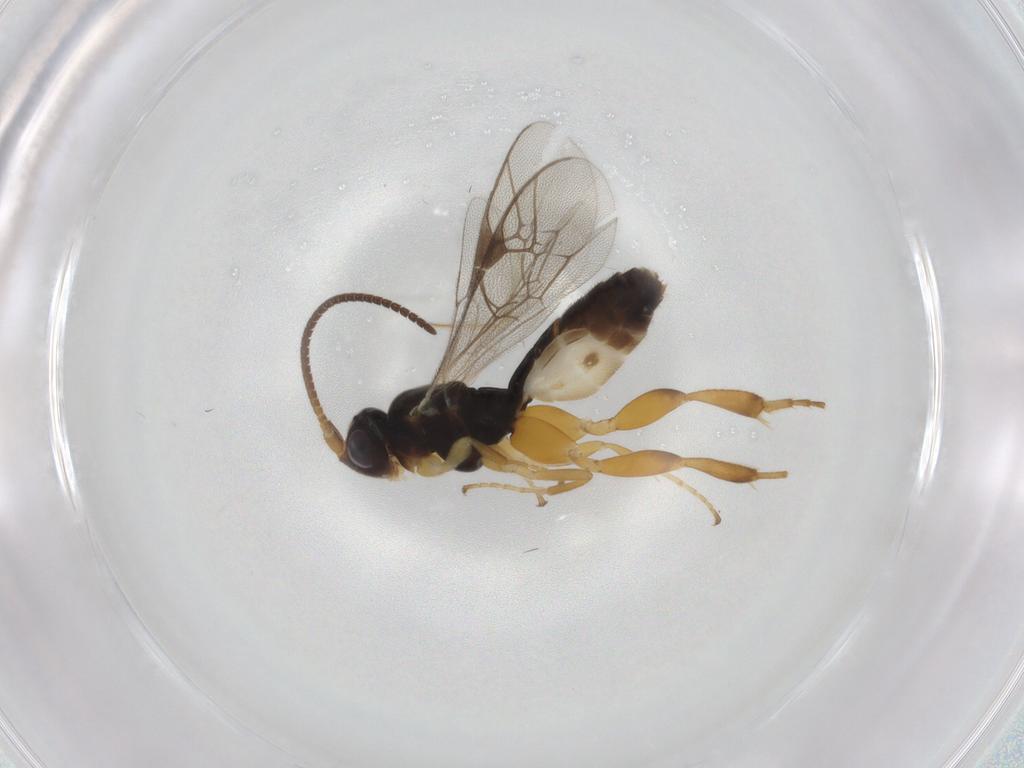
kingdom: Animalia
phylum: Arthropoda
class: Insecta
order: Hymenoptera
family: Ichneumonidae
